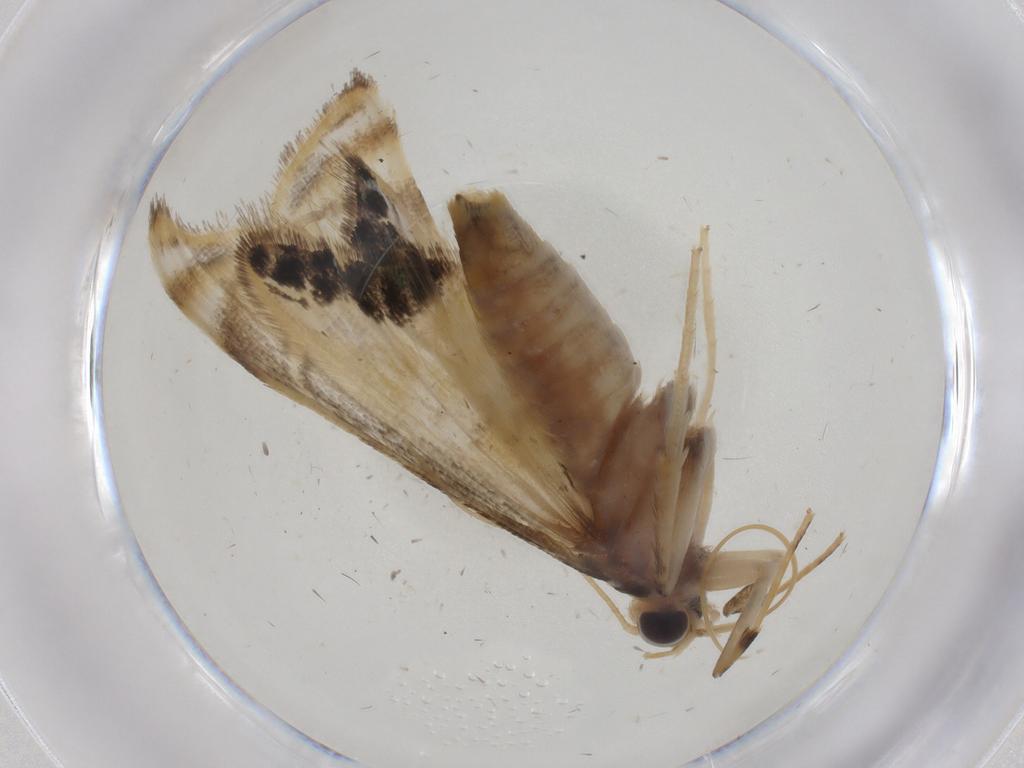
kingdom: Animalia
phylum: Arthropoda
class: Insecta
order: Lepidoptera
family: Crambidae
